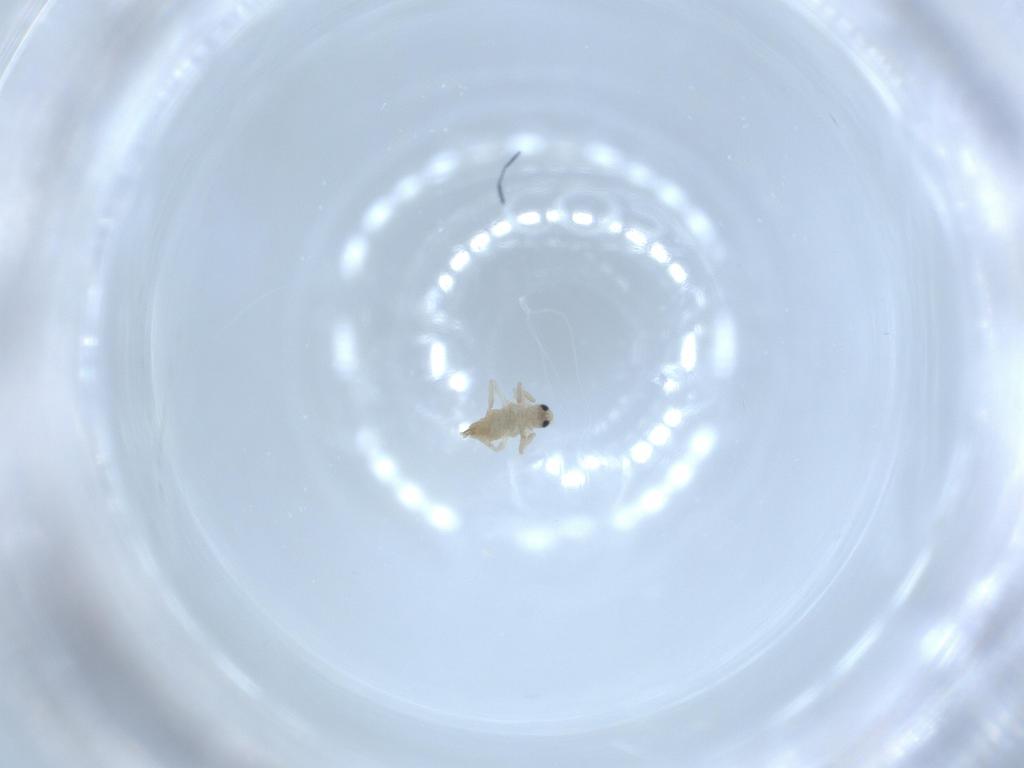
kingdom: Animalia
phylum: Arthropoda
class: Insecta
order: Diptera
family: Cecidomyiidae
